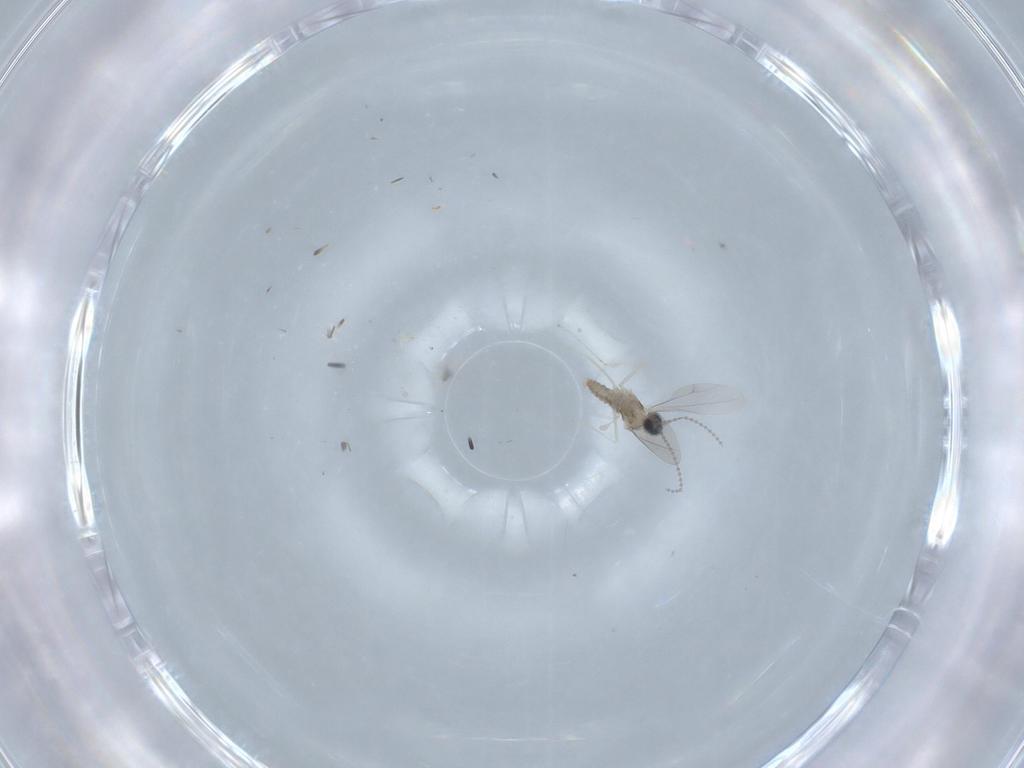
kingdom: Animalia
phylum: Arthropoda
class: Insecta
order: Diptera
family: Cecidomyiidae
